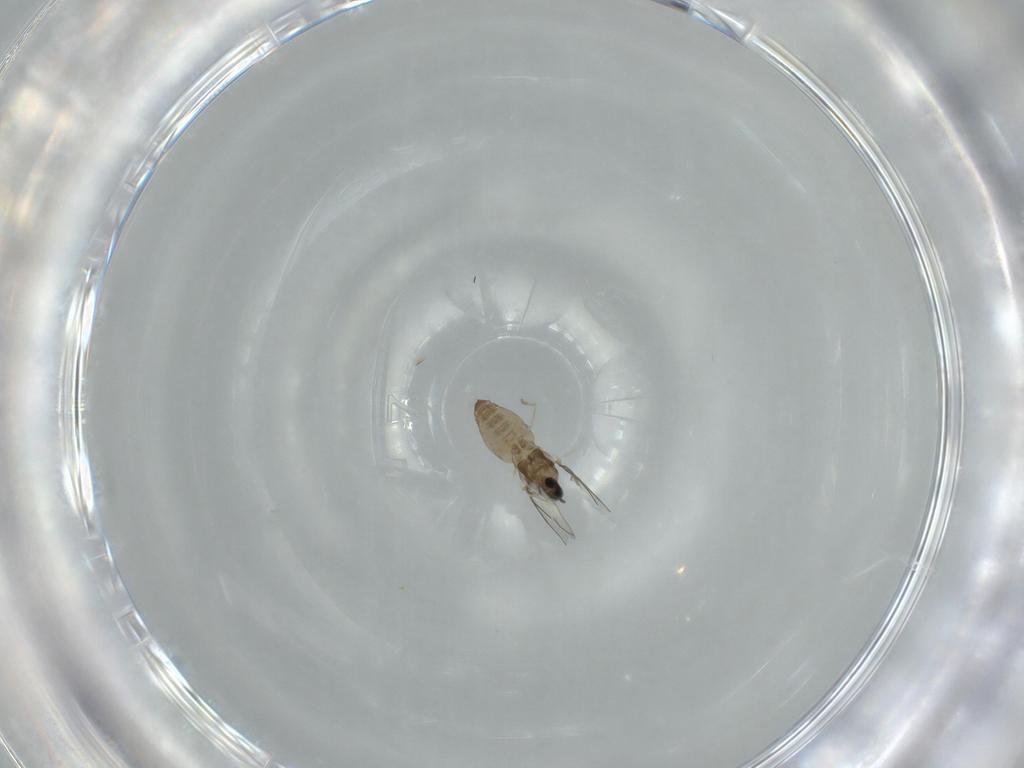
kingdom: Animalia
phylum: Arthropoda
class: Insecta
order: Diptera
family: Cecidomyiidae
